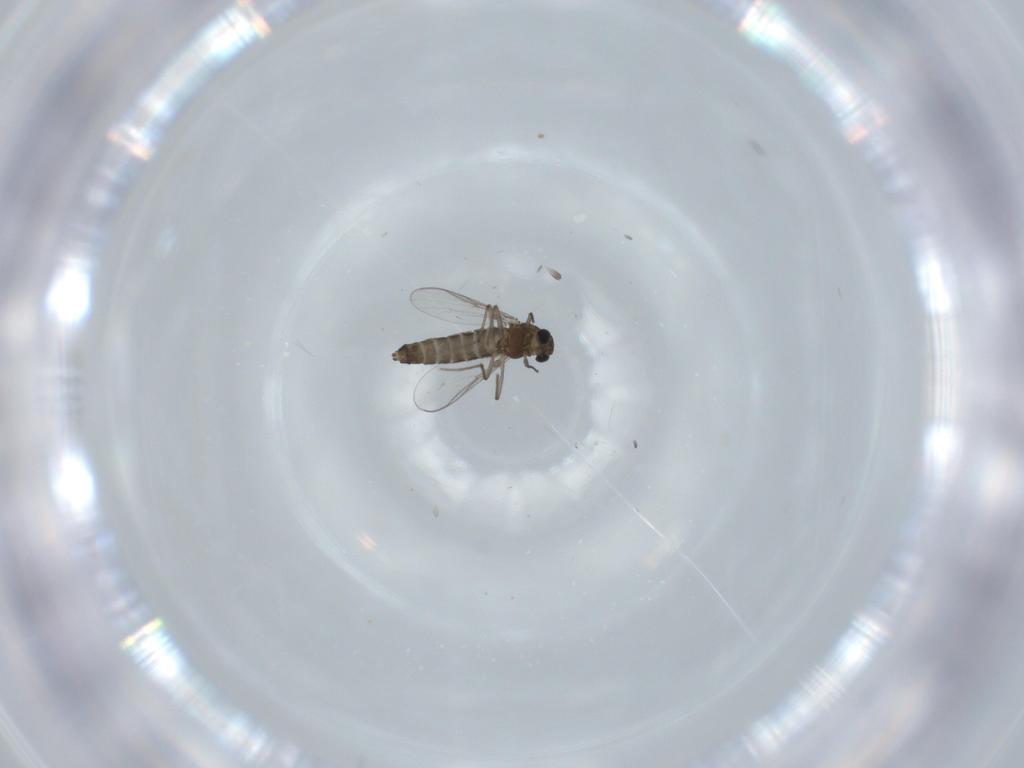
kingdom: Animalia
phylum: Arthropoda
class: Insecta
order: Diptera
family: Chironomidae
